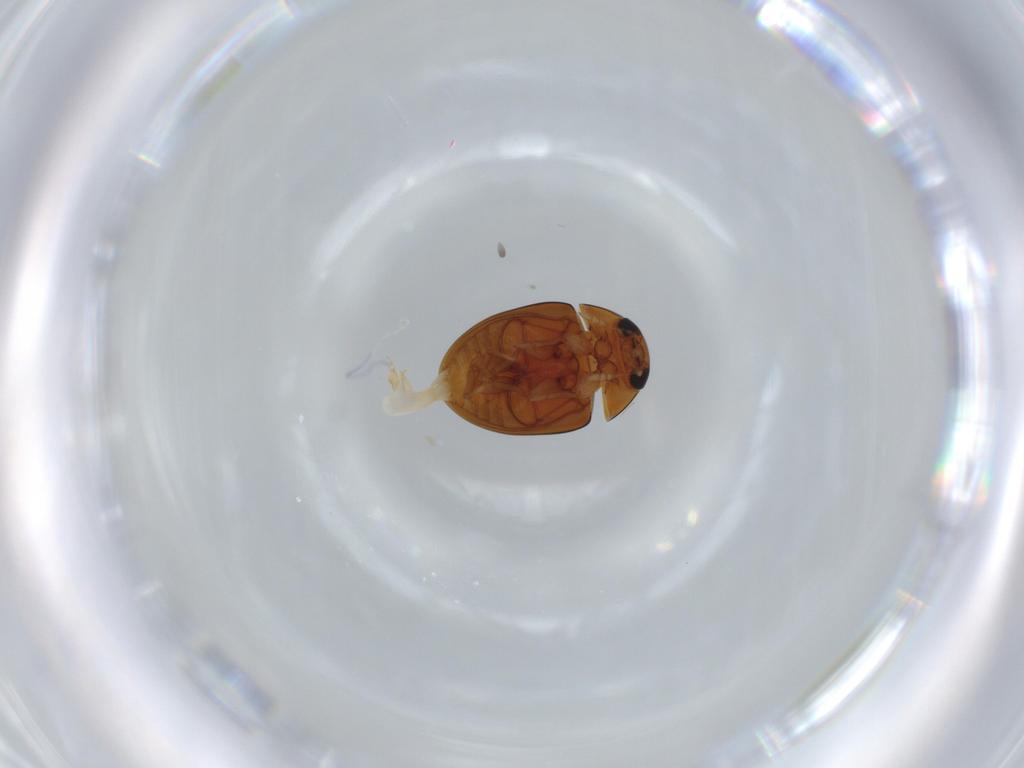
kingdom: Animalia
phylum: Arthropoda
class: Insecta
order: Coleoptera
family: Phalacridae
